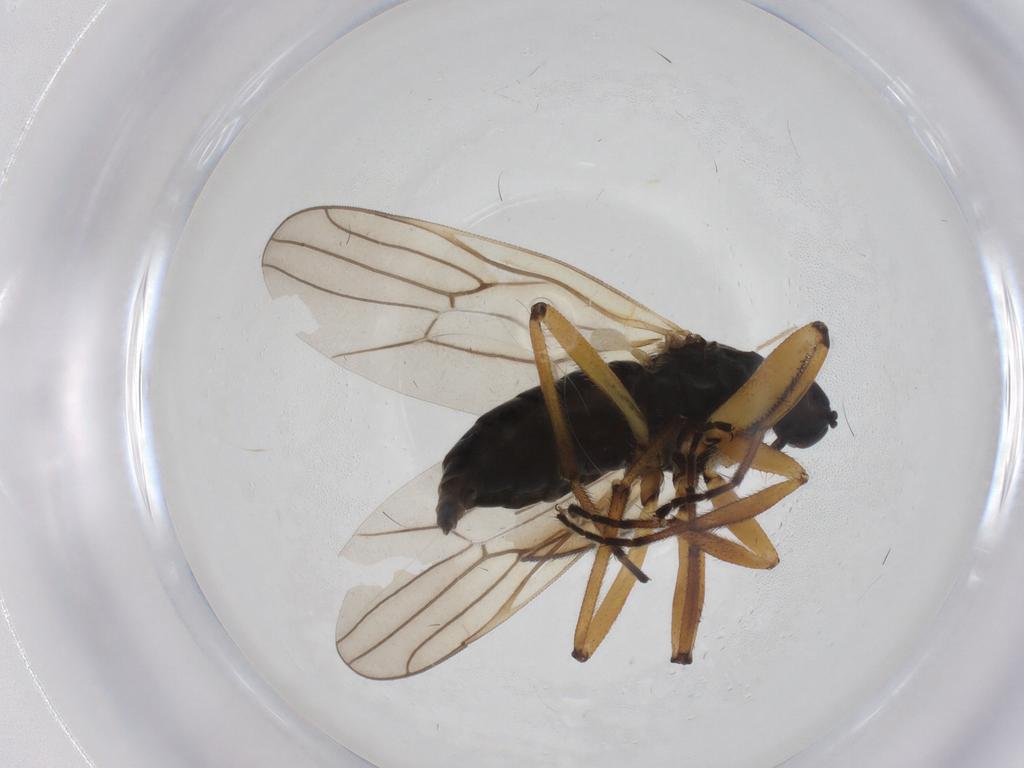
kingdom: Animalia
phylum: Arthropoda
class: Insecta
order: Diptera
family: Hybotidae
